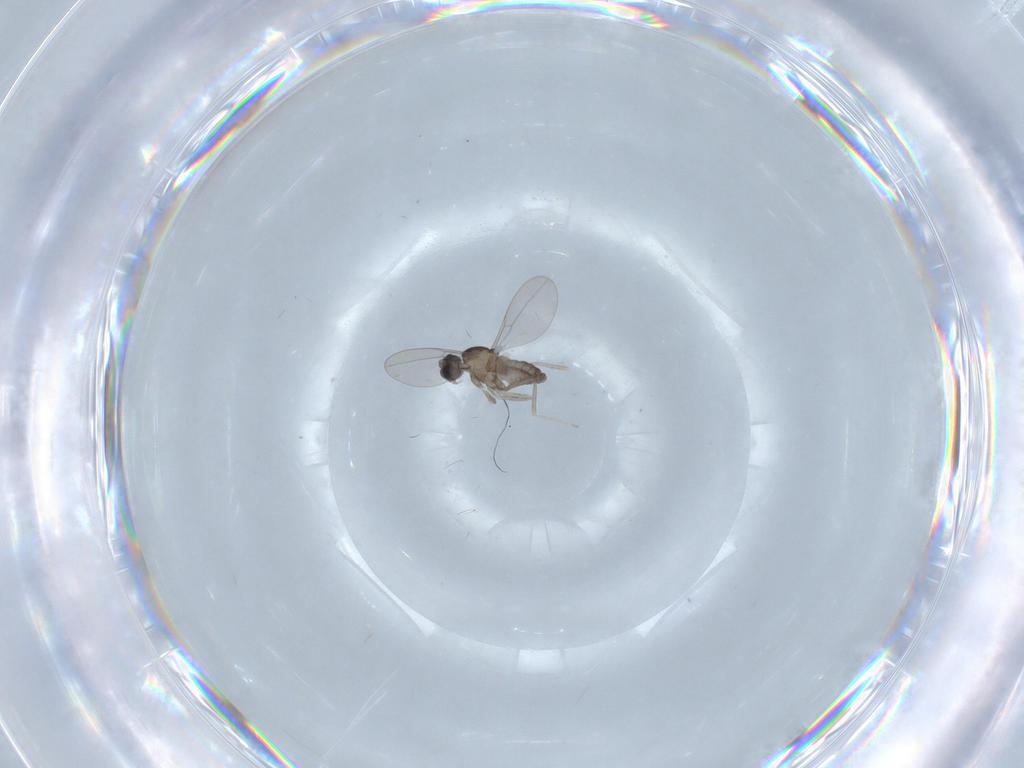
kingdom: Animalia
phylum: Arthropoda
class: Insecta
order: Diptera
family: Cecidomyiidae
